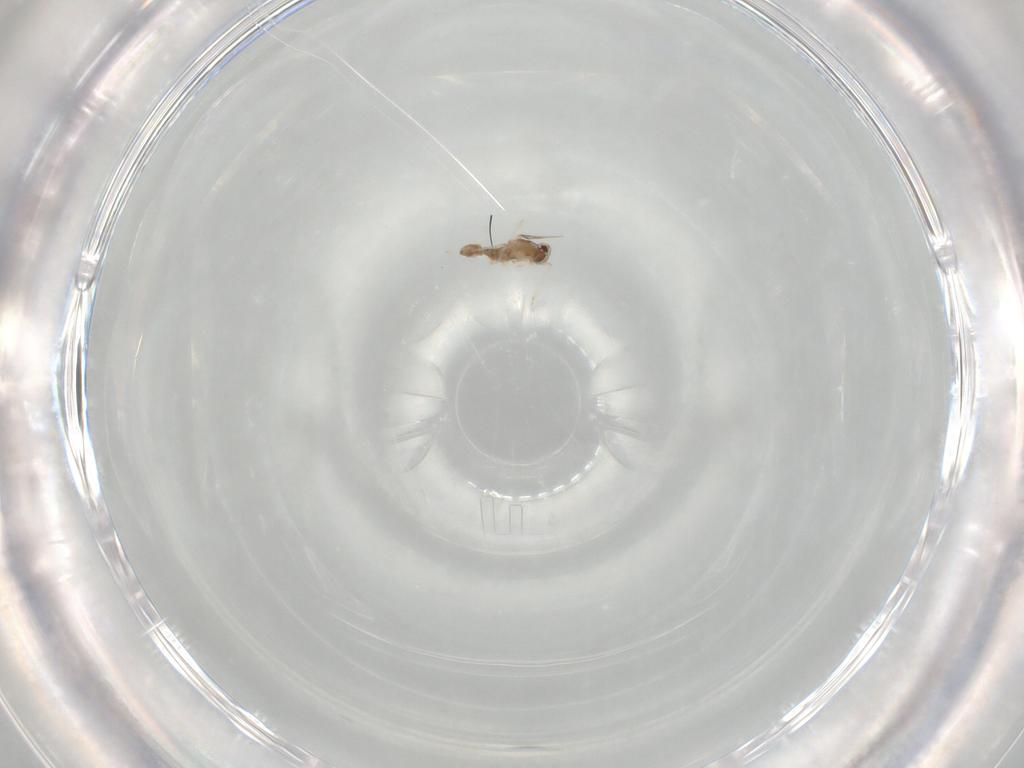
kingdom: Animalia
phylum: Arthropoda
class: Insecta
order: Diptera
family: Cecidomyiidae
